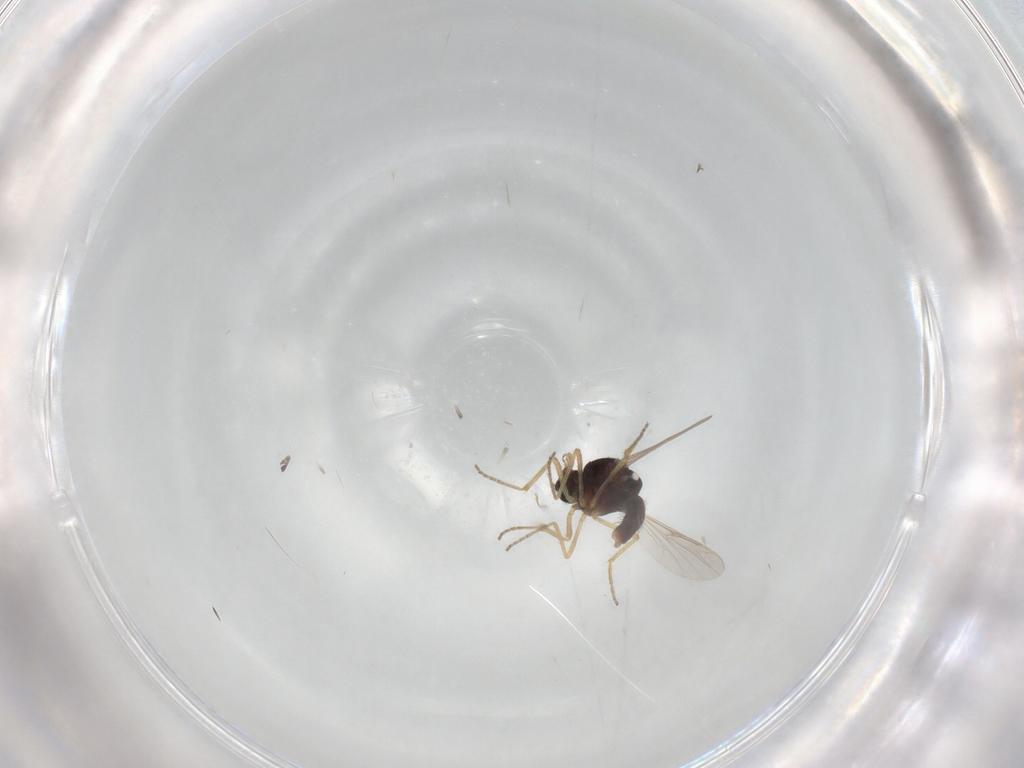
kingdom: Animalia
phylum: Arthropoda
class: Insecta
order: Diptera
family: Ceratopogonidae
